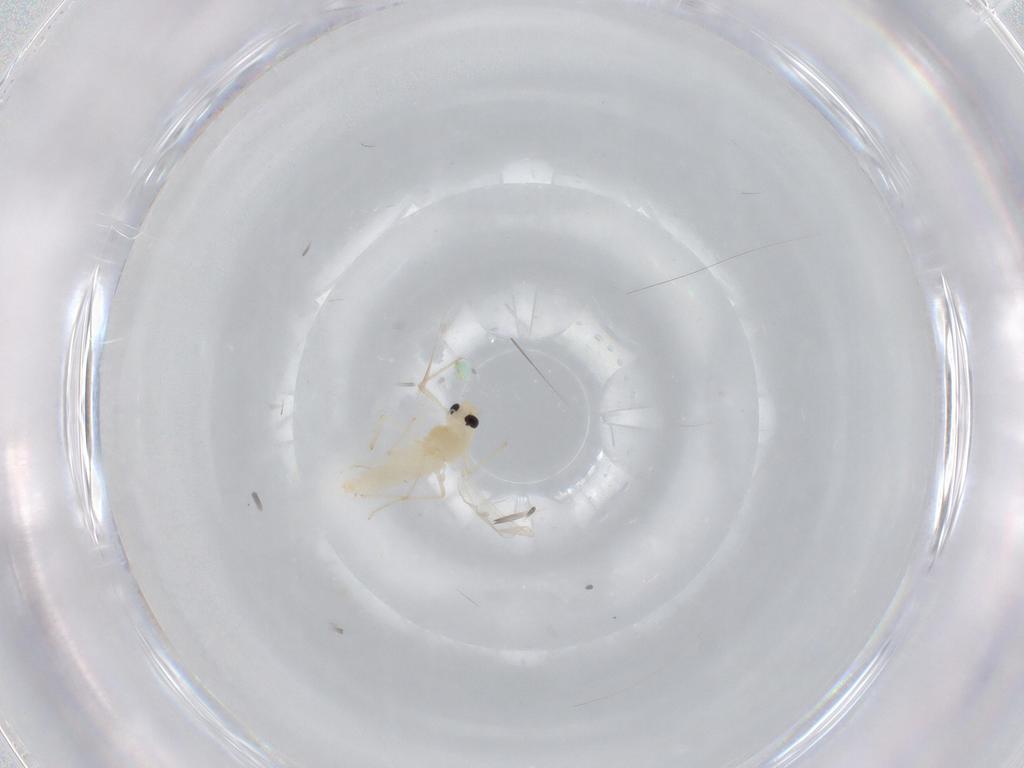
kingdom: Animalia
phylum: Arthropoda
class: Insecta
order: Diptera
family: Chironomidae
